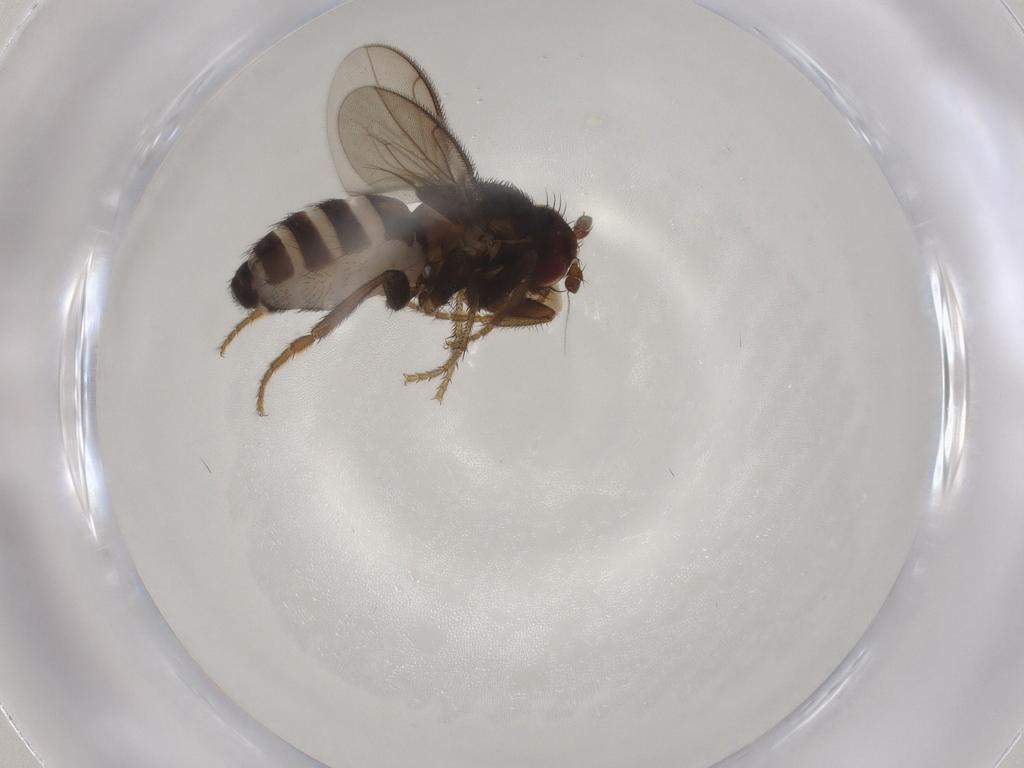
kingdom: Animalia
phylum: Arthropoda
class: Insecta
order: Diptera
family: Sphaeroceridae
